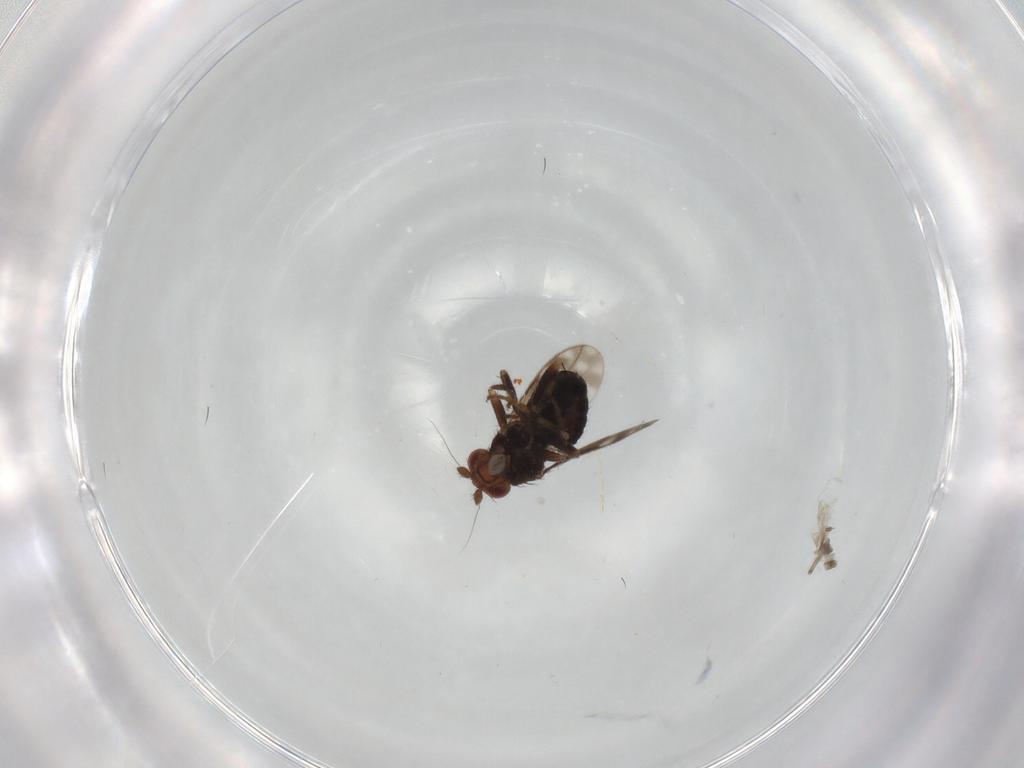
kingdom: Animalia
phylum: Arthropoda
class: Insecta
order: Diptera
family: Sphaeroceridae
